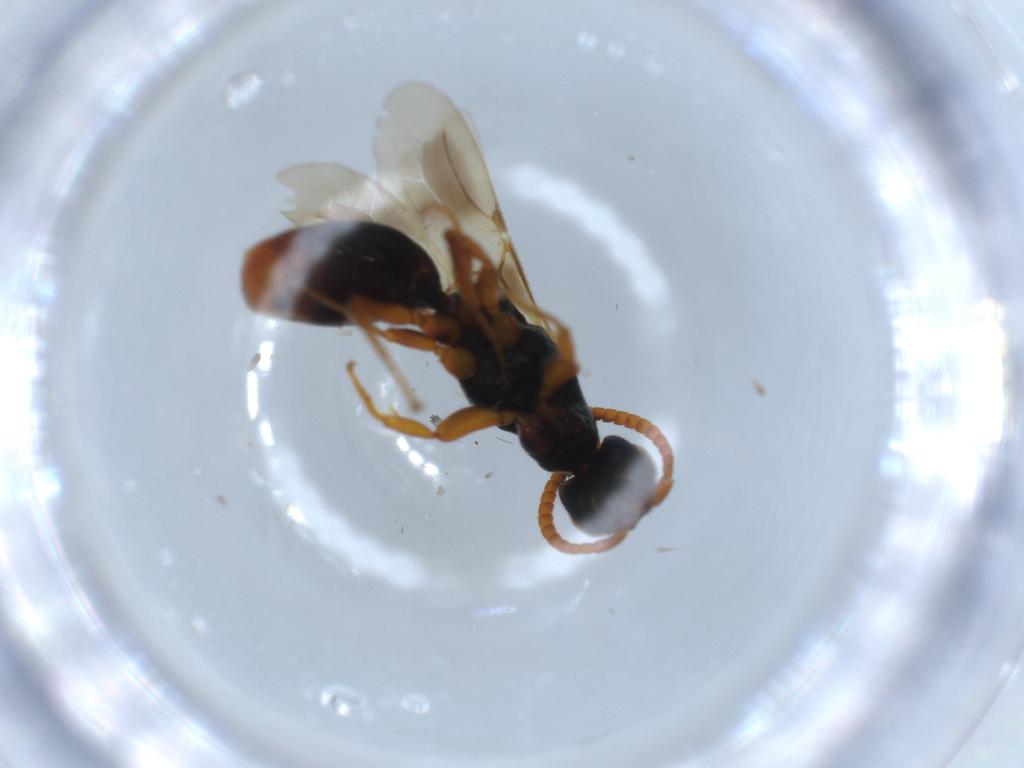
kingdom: Animalia
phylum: Arthropoda
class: Insecta
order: Hymenoptera
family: Bethylidae
